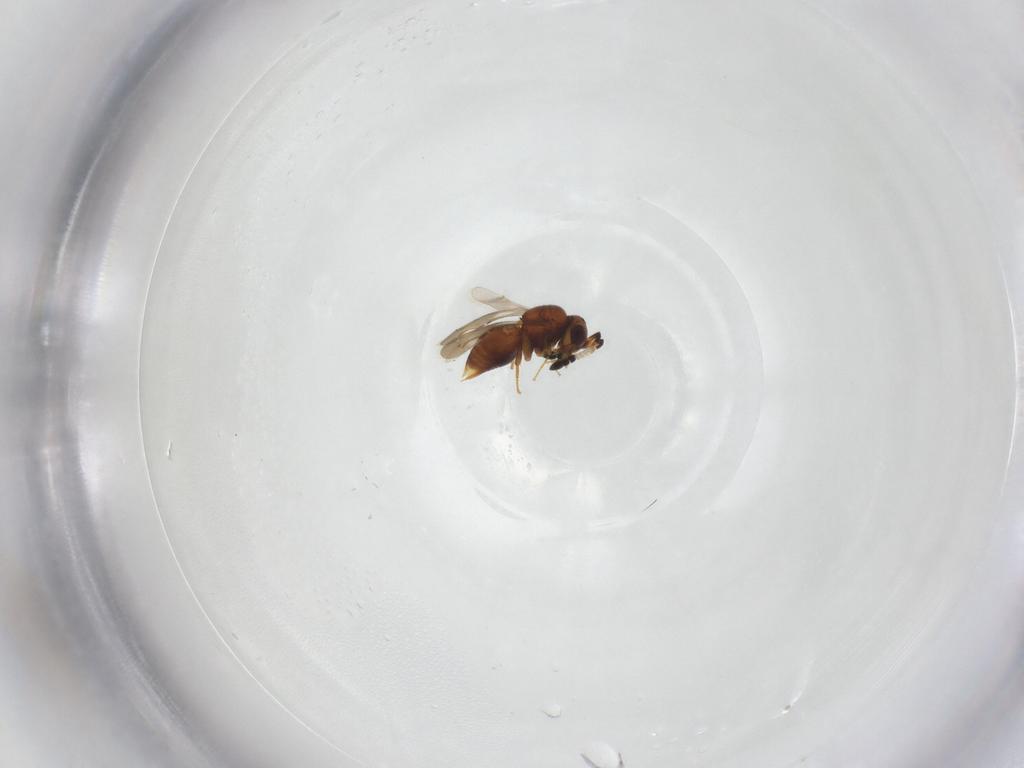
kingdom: Animalia
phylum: Arthropoda
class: Insecta
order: Hymenoptera
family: Ceraphronidae
